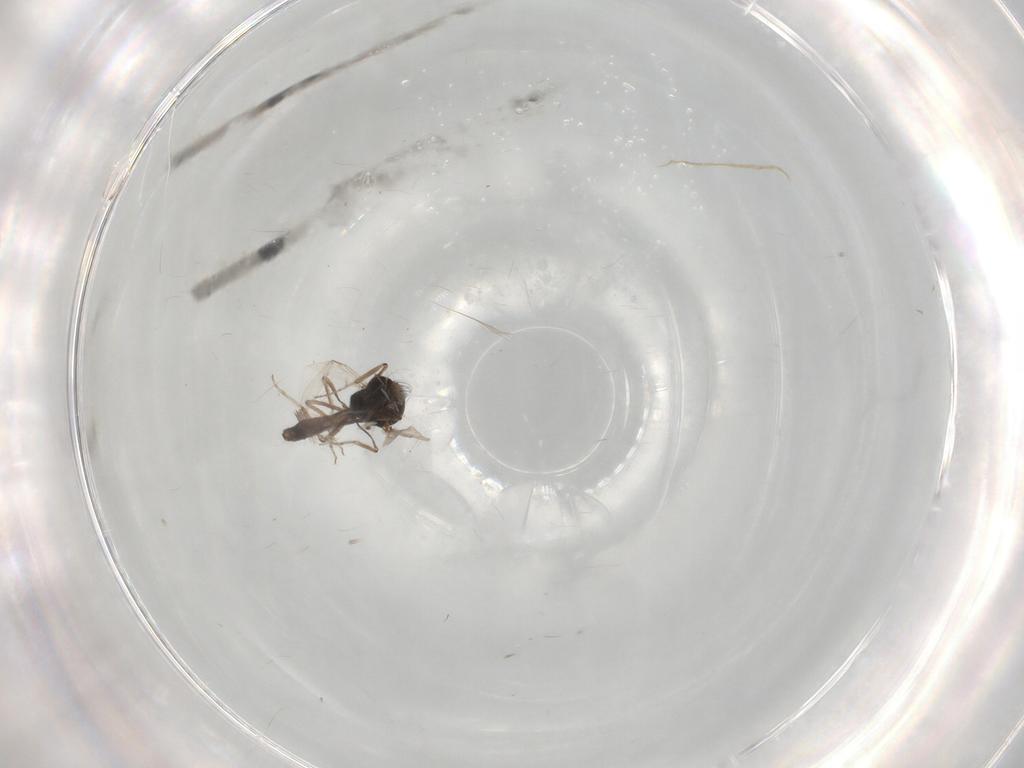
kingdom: Animalia
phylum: Arthropoda
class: Insecta
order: Diptera
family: Ceratopogonidae
